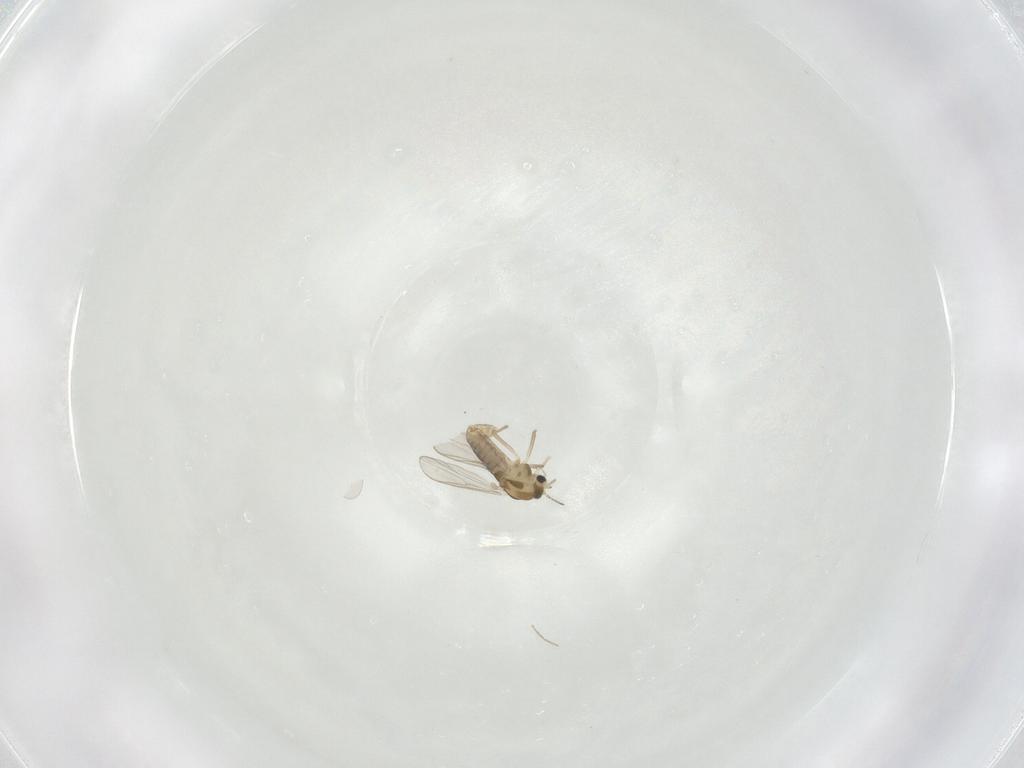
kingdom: Animalia
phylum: Arthropoda
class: Insecta
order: Diptera
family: Chironomidae
